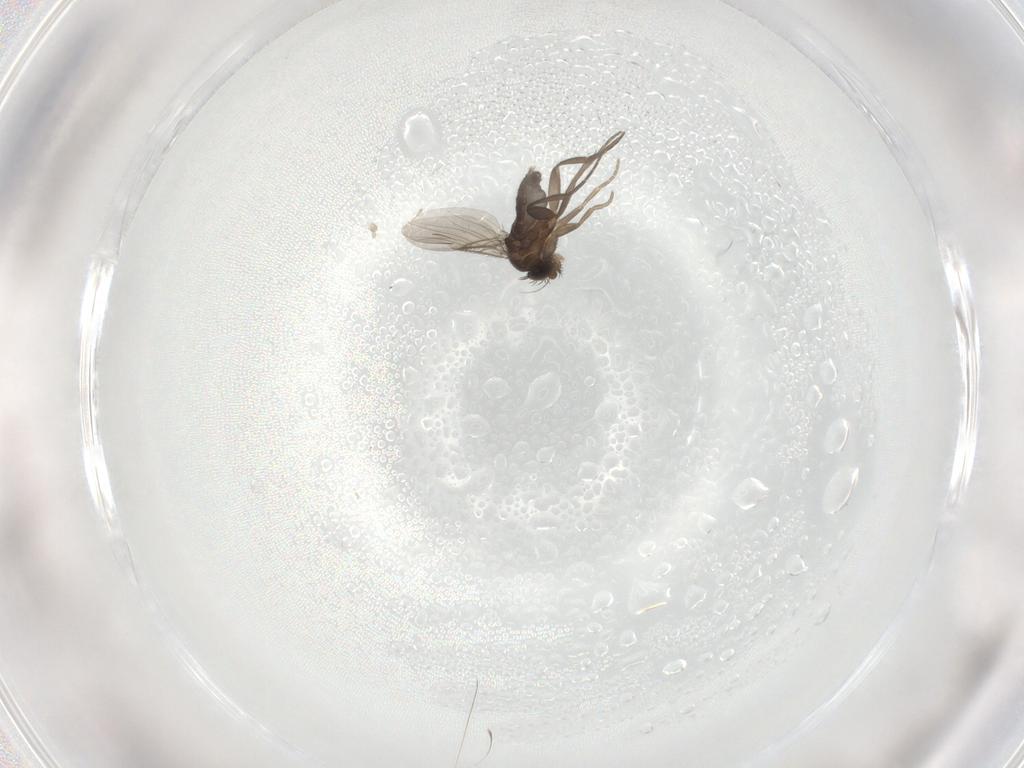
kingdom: Animalia
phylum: Arthropoda
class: Insecta
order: Diptera
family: Phoridae
